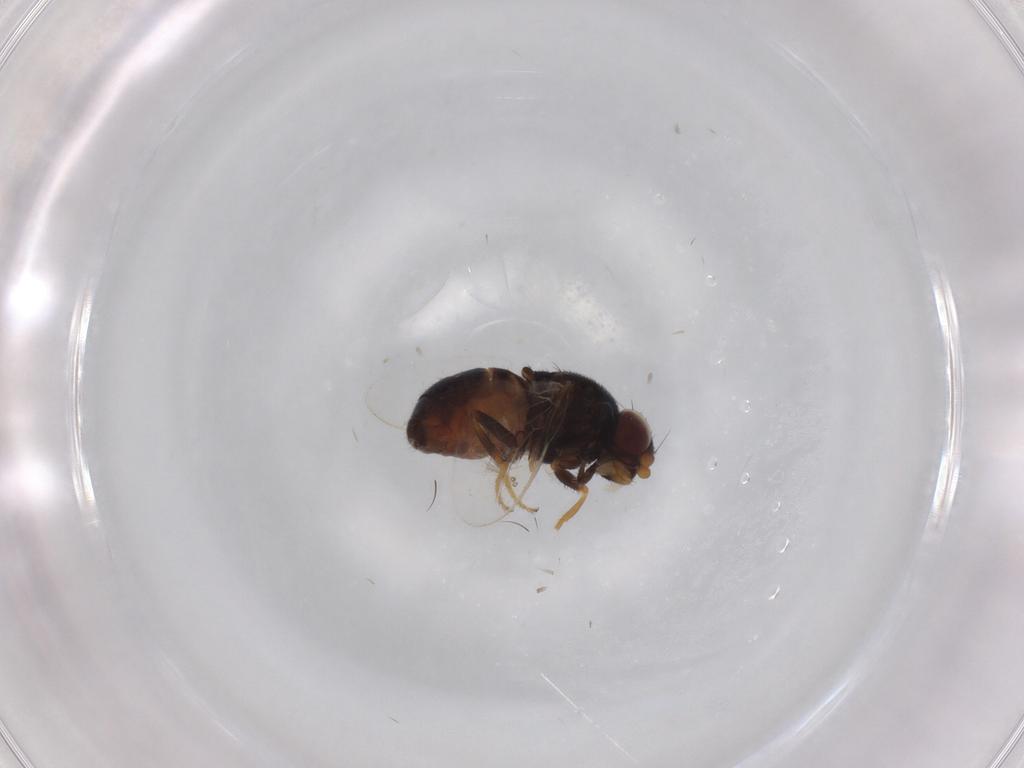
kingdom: Animalia
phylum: Arthropoda
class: Insecta
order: Diptera
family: Chloropidae
